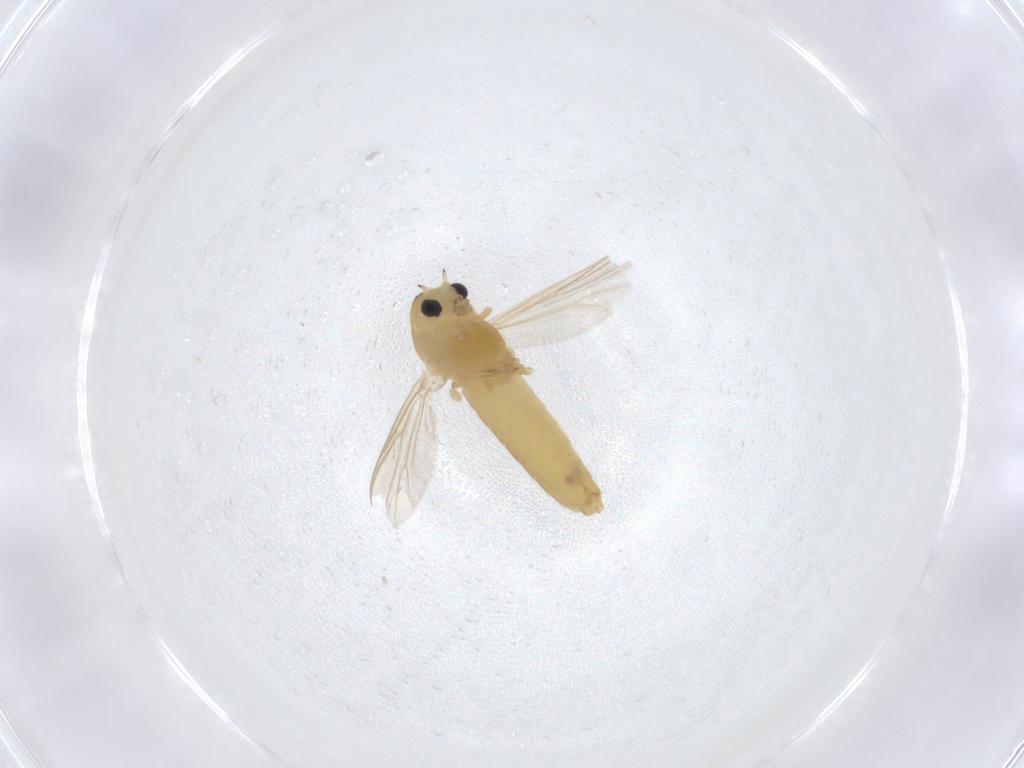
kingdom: Animalia
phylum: Arthropoda
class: Insecta
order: Diptera
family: Chironomidae
